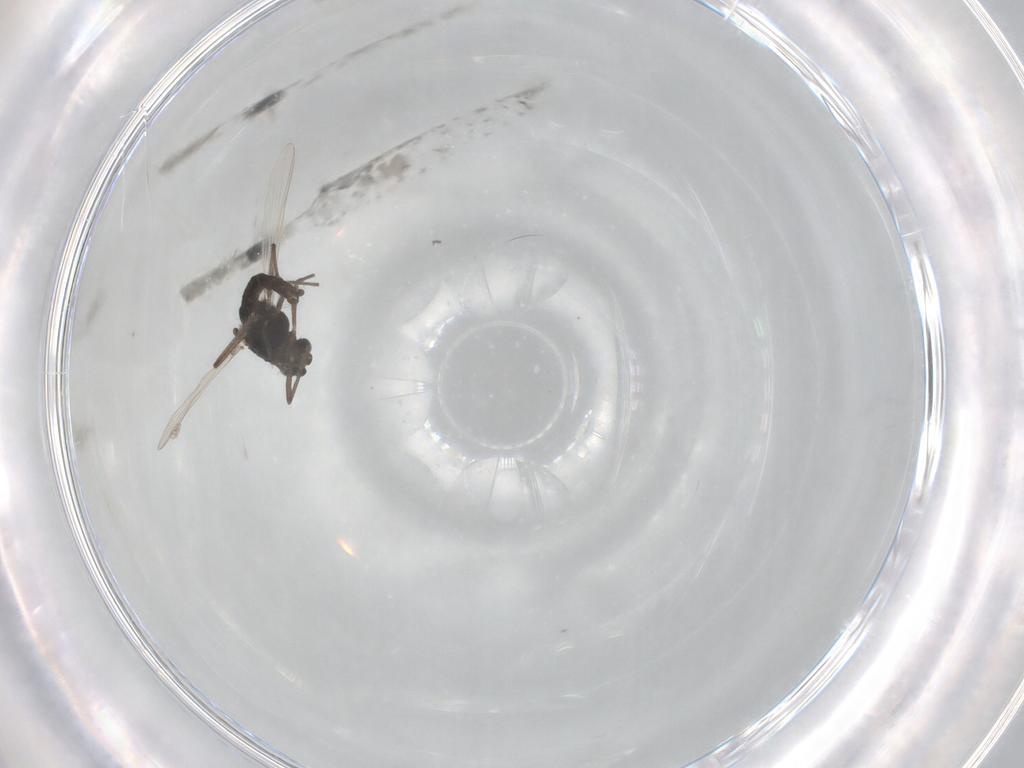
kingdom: Animalia
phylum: Arthropoda
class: Insecta
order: Diptera
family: Chironomidae
